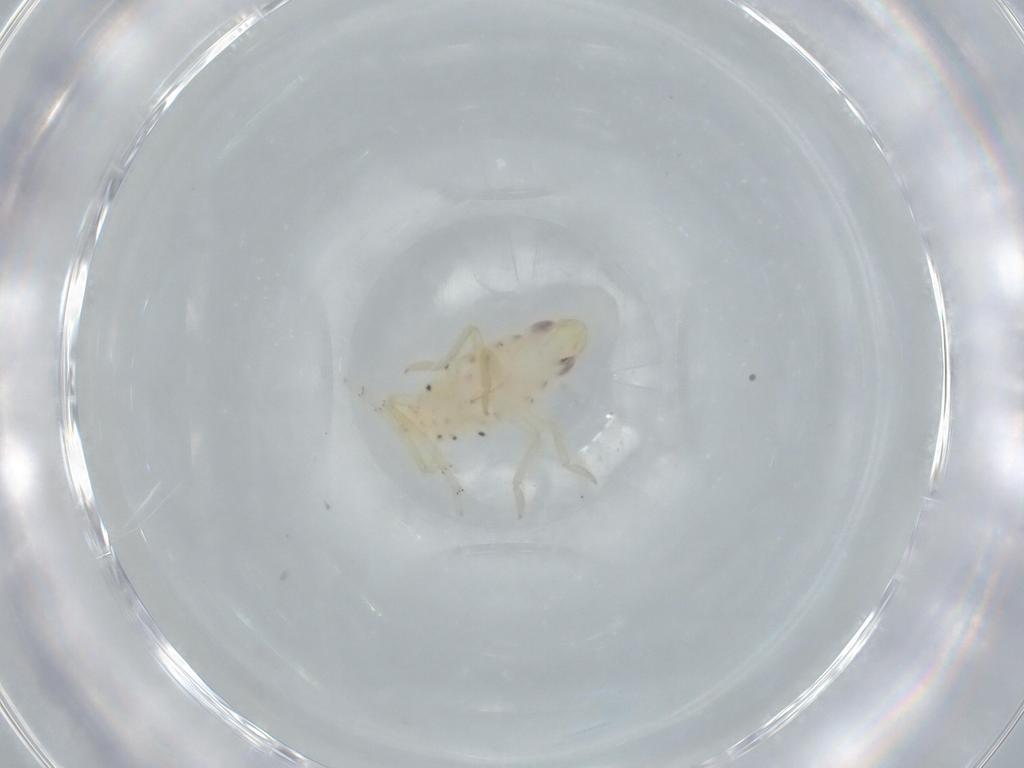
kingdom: Animalia
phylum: Arthropoda
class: Insecta
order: Hemiptera
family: Tropiduchidae
